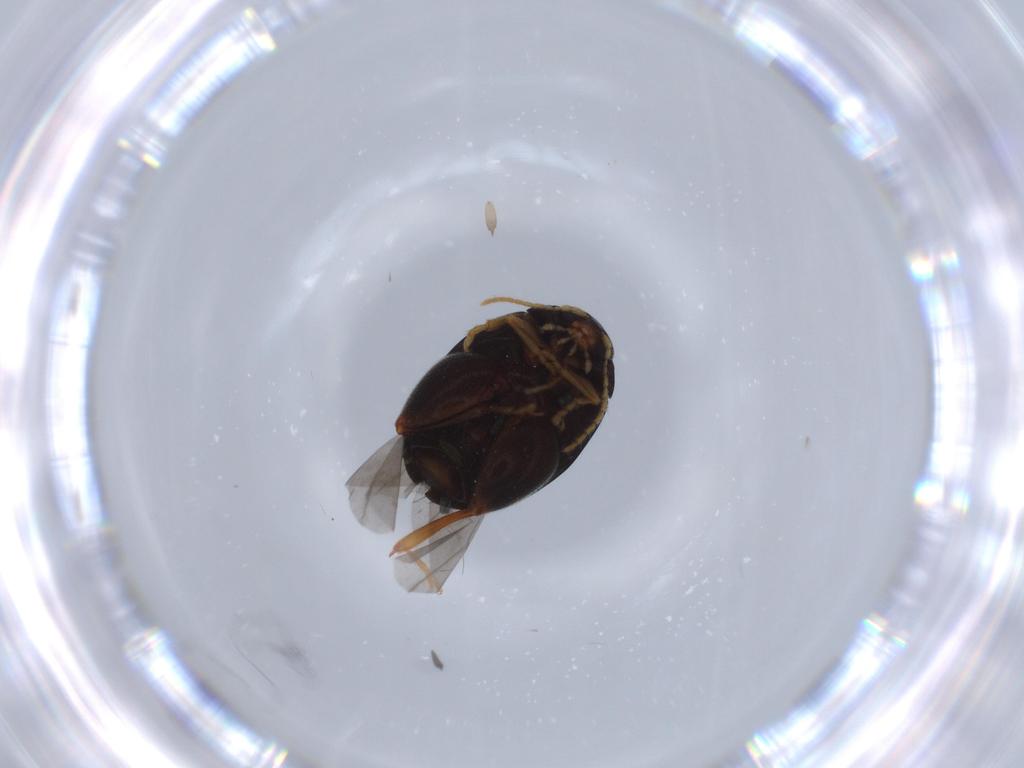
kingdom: Animalia
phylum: Arthropoda
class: Insecta
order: Coleoptera
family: Chrysomelidae
